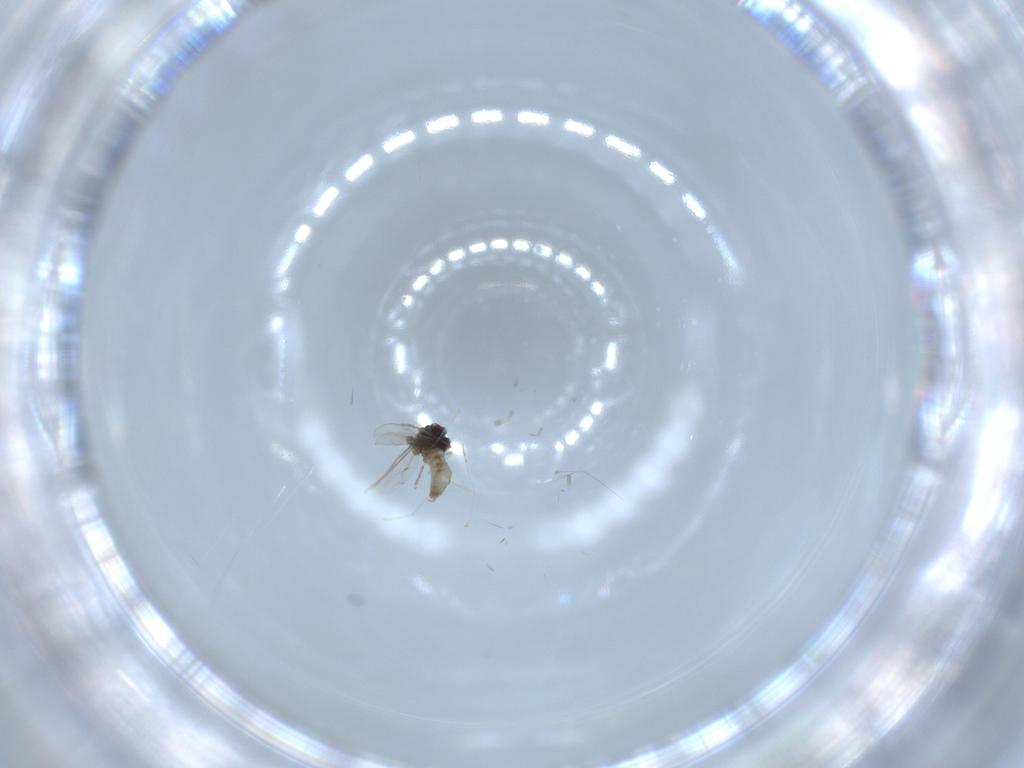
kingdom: Animalia
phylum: Arthropoda
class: Insecta
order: Diptera
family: Cecidomyiidae
